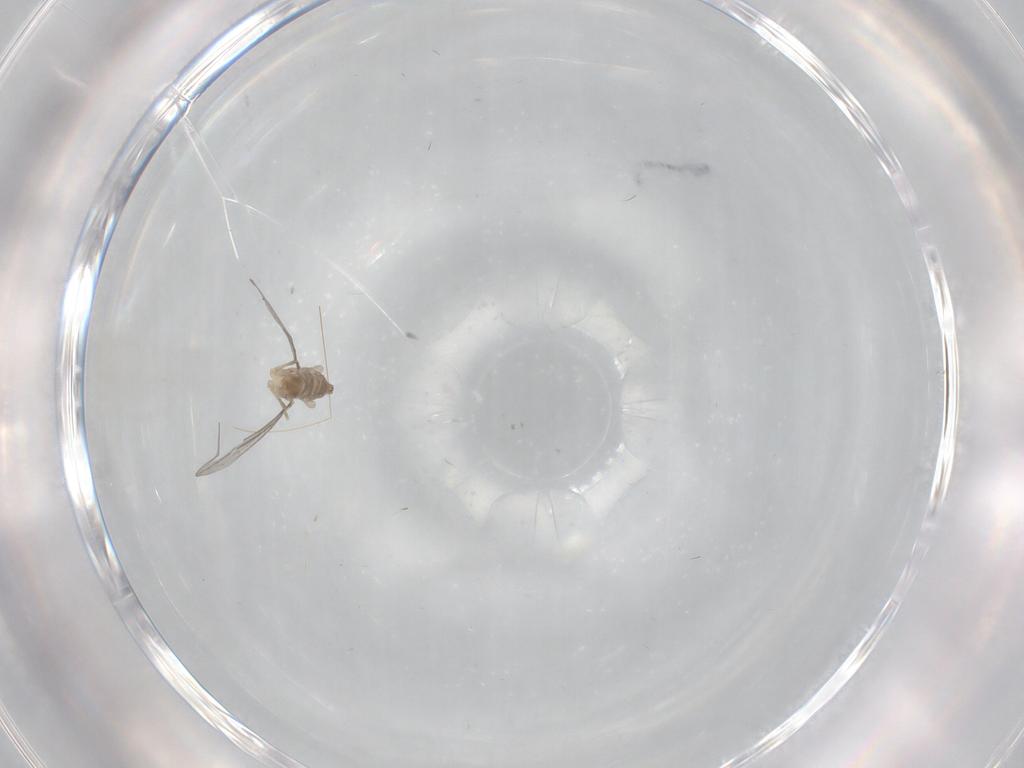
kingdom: Animalia
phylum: Arthropoda
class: Insecta
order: Diptera
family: Cecidomyiidae
